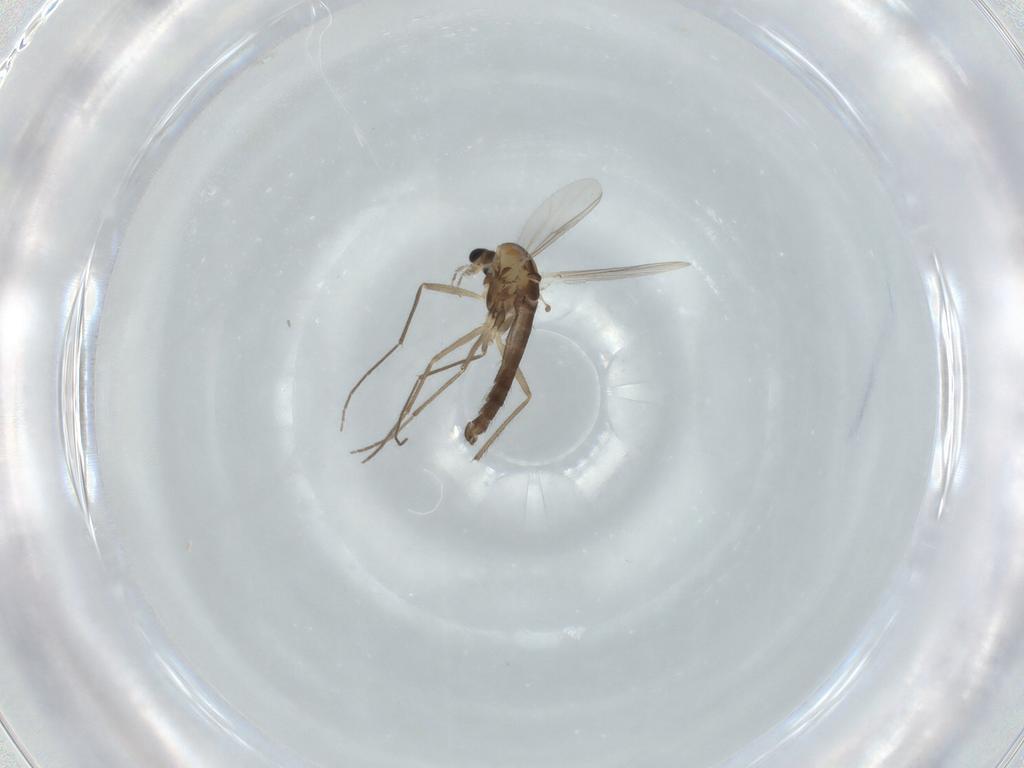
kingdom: Animalia
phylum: Arthropoda
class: Insecta
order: Diptera
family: Chironomidae
